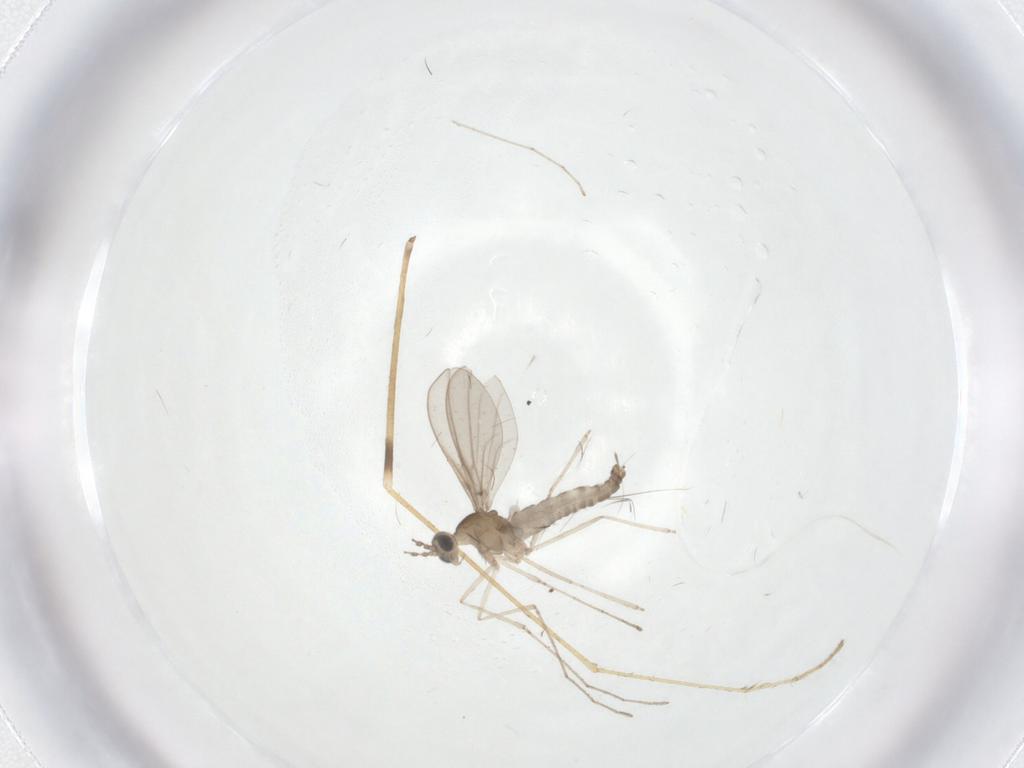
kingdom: Animalia
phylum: Arthropoda
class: Insecta
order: Diptera
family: Limoniidae
